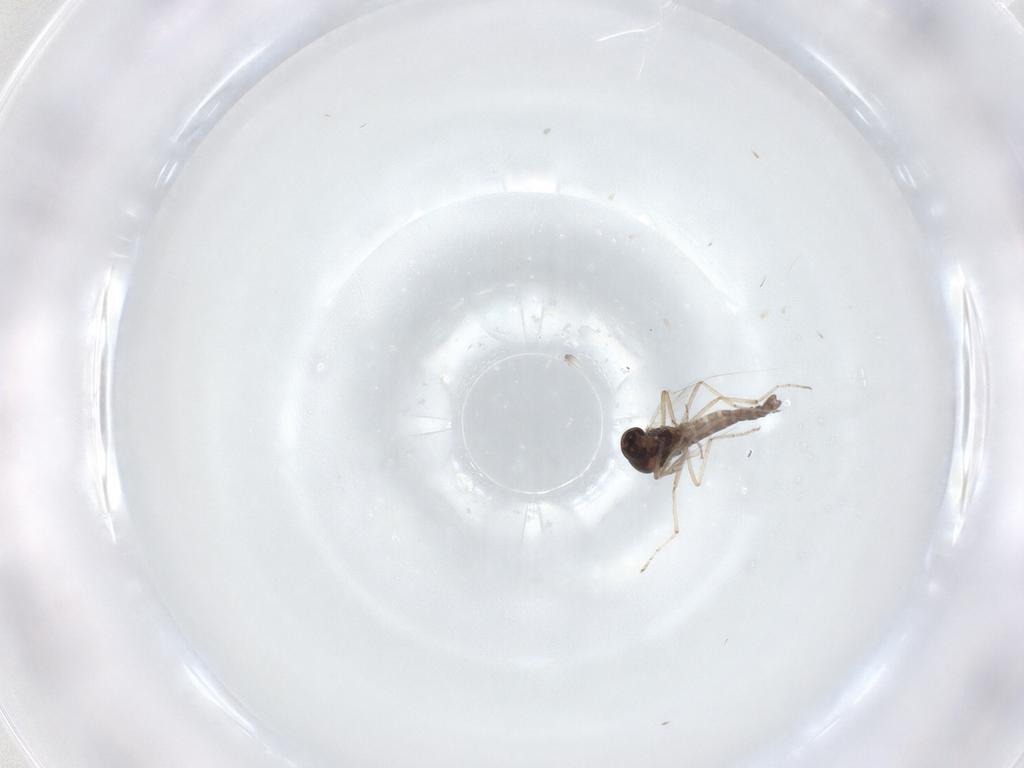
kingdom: Animalia
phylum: Arthropoda
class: Insecta
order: Diptera
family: Ceratopogonidae
